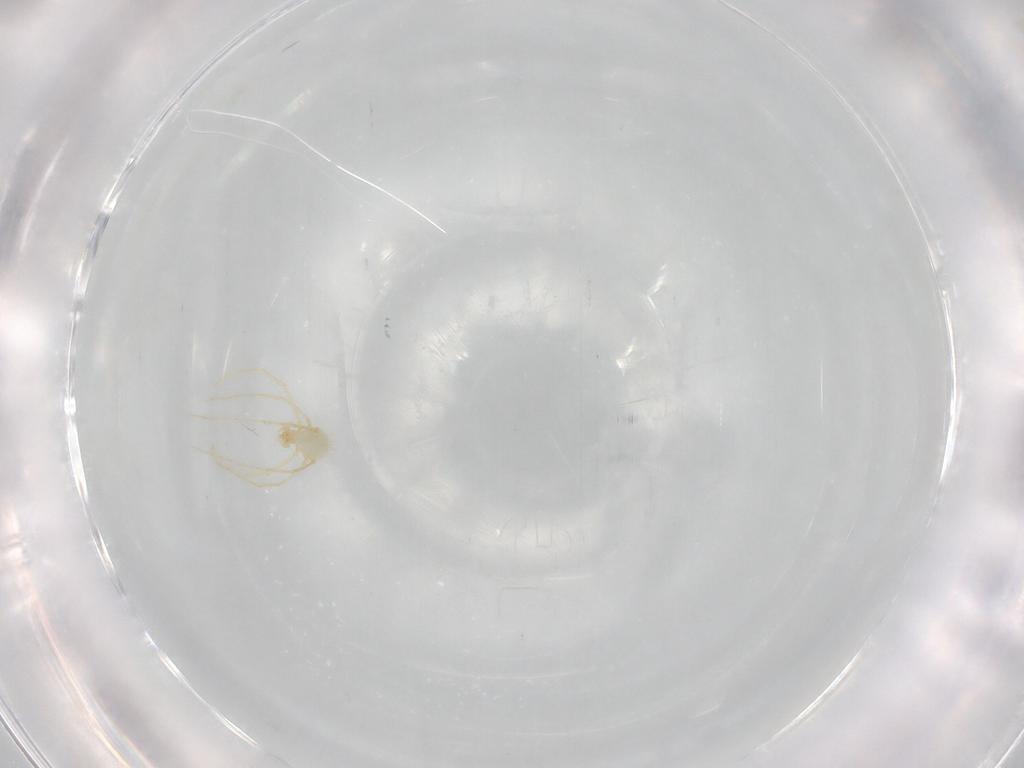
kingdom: Animalia
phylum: Arthropoda
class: Arachnida
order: Trombidiformes
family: Erythraeidae
